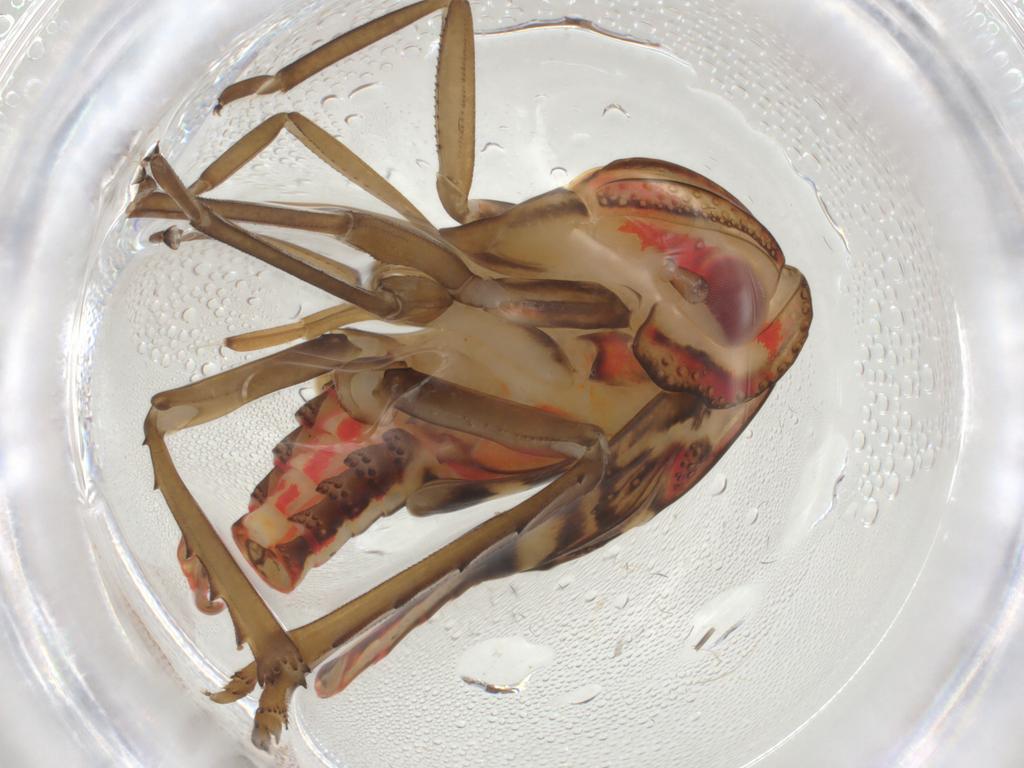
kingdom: Animalia
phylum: Arthropoda
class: Insecta
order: Hemiptera
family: Nogodinidae
